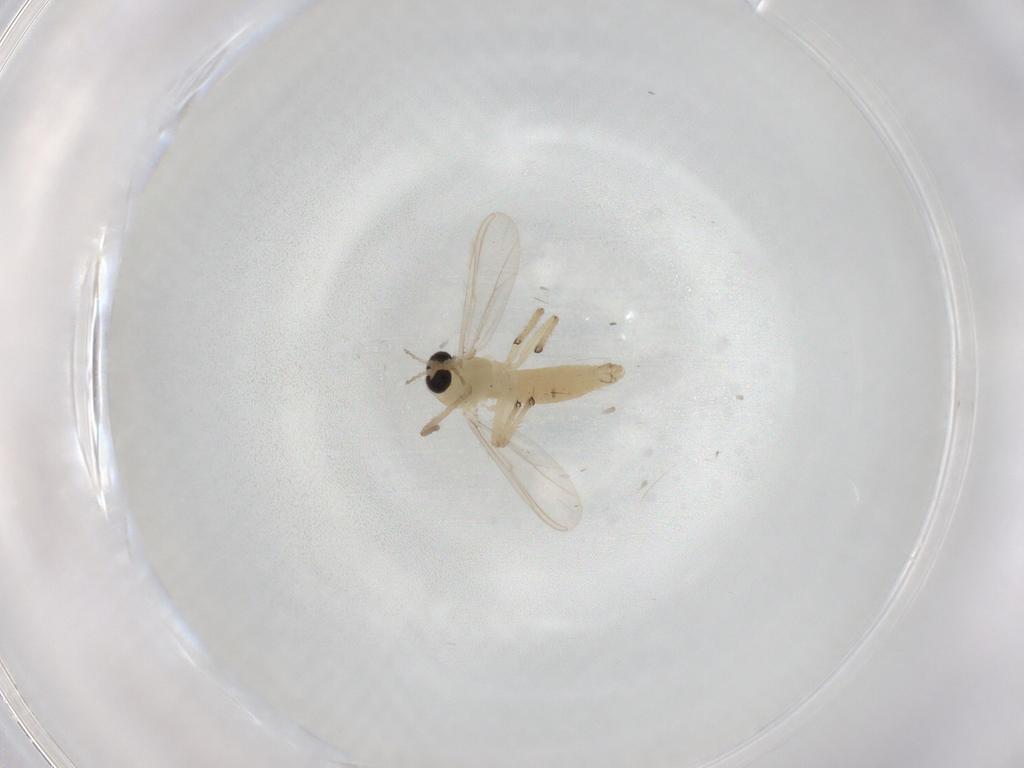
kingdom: Animalia
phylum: Arthropoda
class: Insecta
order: Diptera
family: Chironomidae
